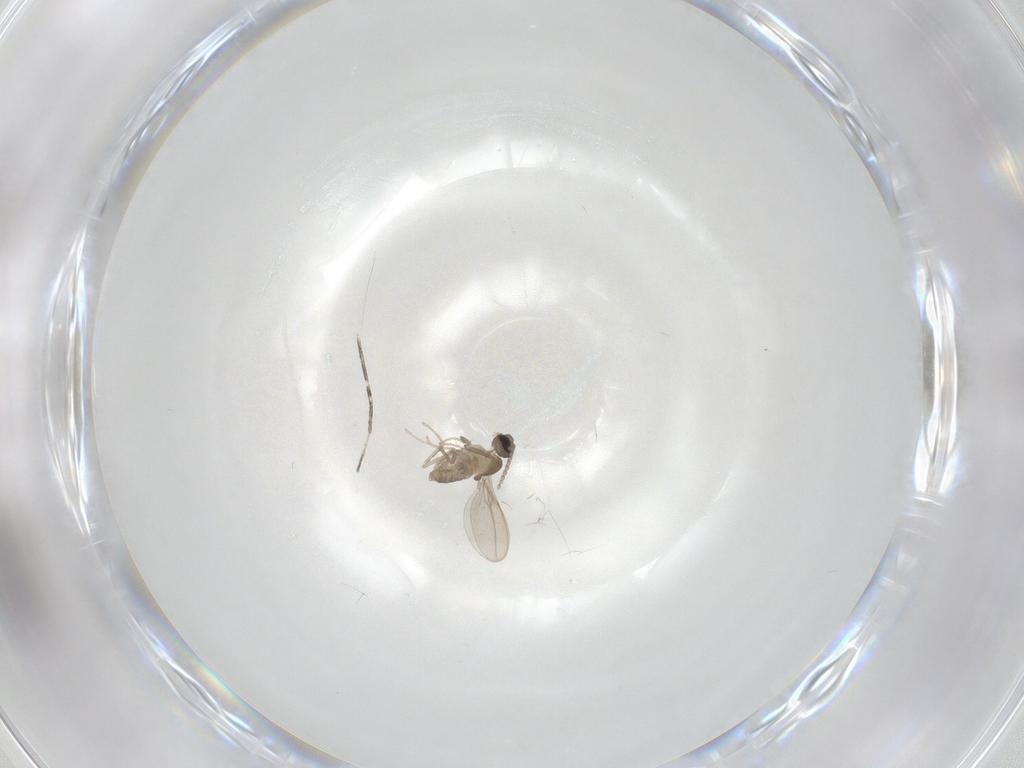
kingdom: Animalia
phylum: Arthropoda
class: Insecta
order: Diptera
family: Cecidomyiidae
